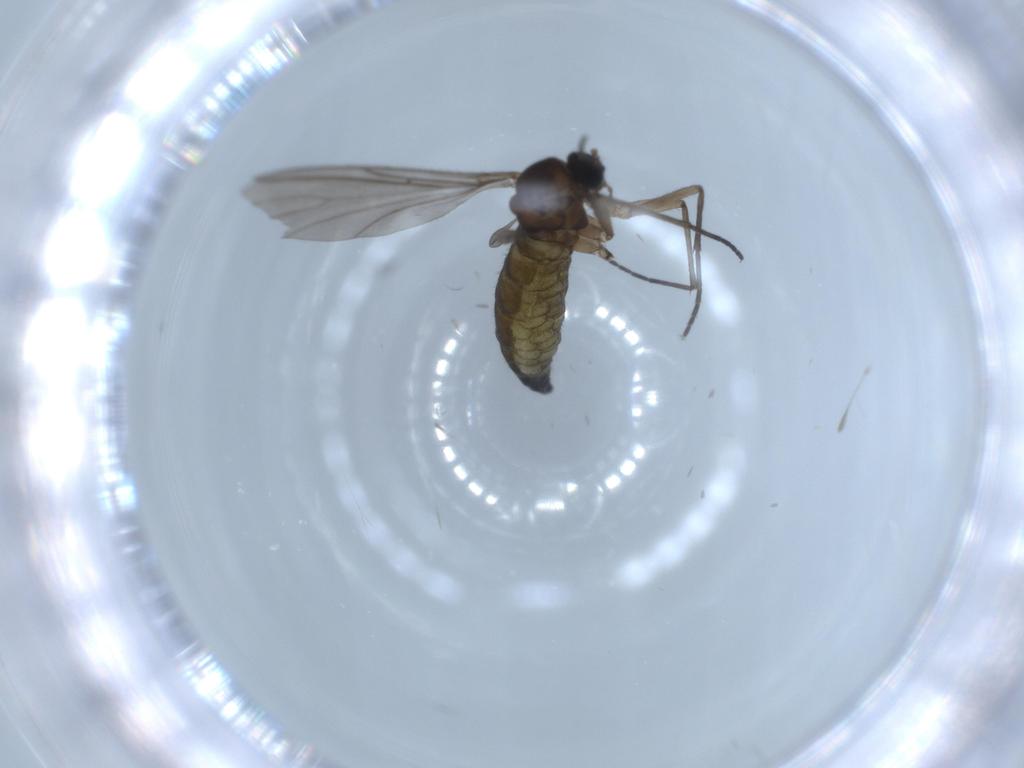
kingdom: Animalia
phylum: Arthropoda
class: Insecta
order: Diptera
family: Sciaridae
